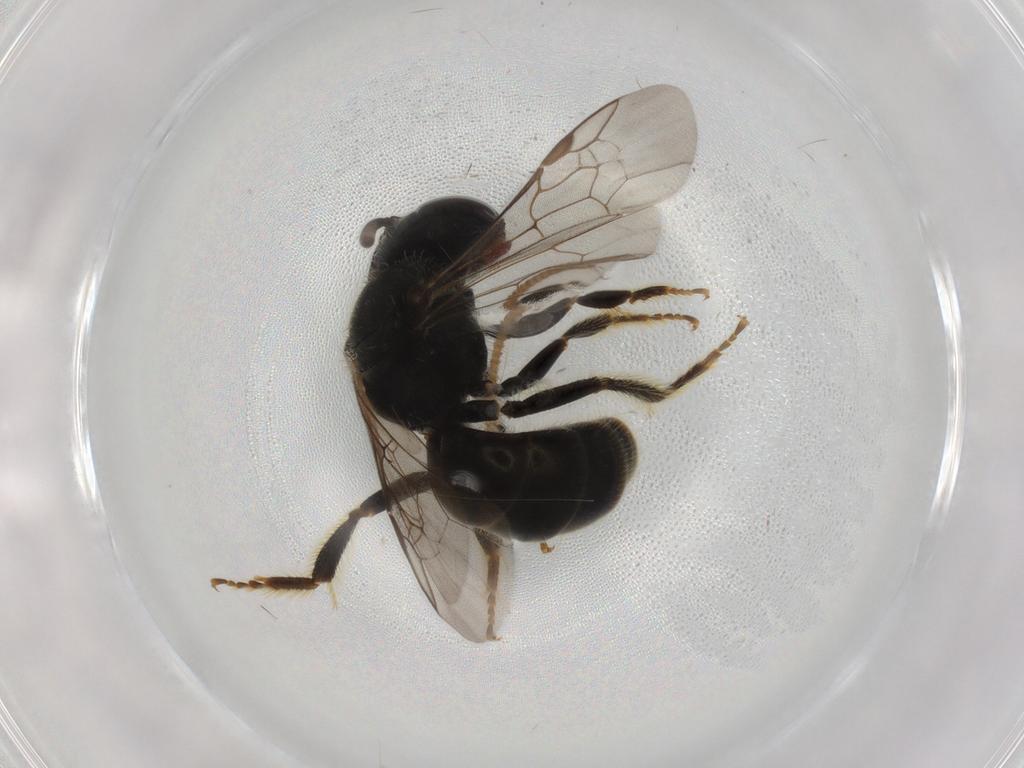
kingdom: Animalia
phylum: Arthropoda
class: Insecta
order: Hymenoptera
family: Halictidae
